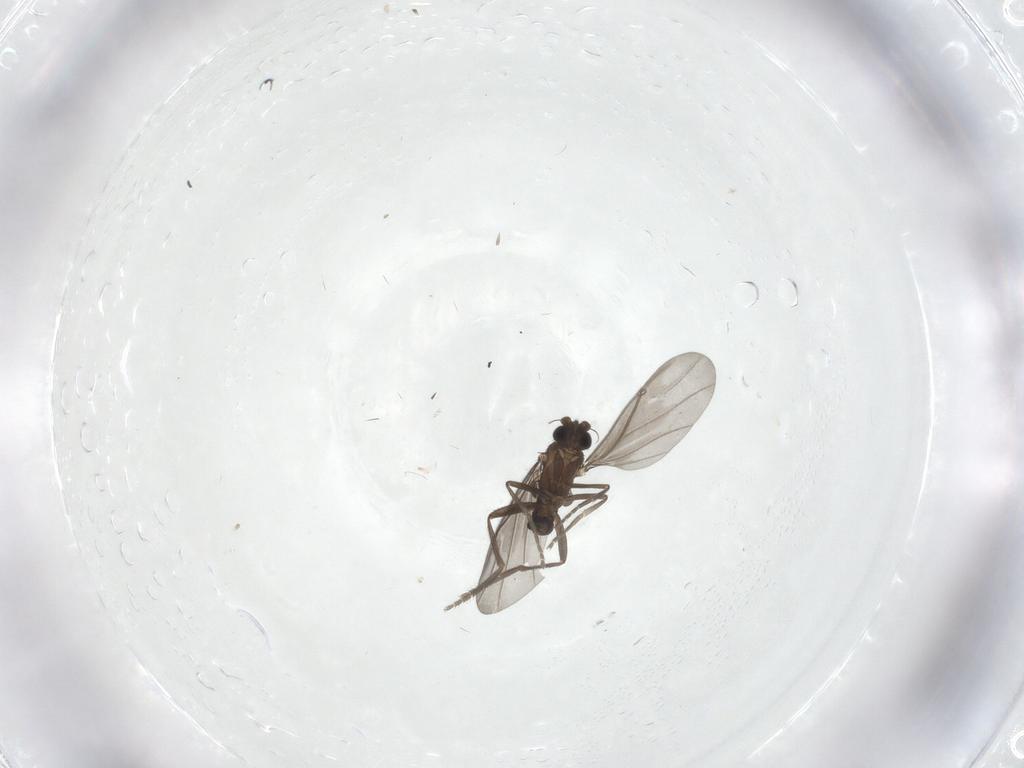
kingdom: Animalia
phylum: Arthropoda
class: Insecta
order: Diptera
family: Phoridae
